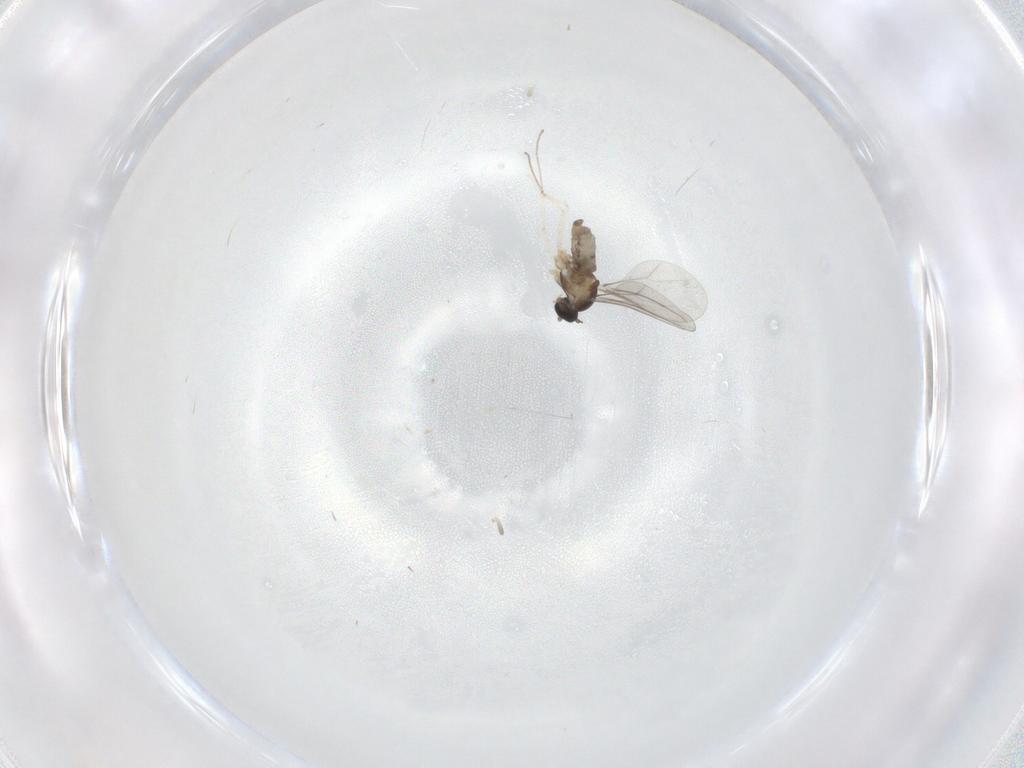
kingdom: Animalia
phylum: Arthropoda
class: Insecta
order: Diptera
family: Cecidomyiidae
